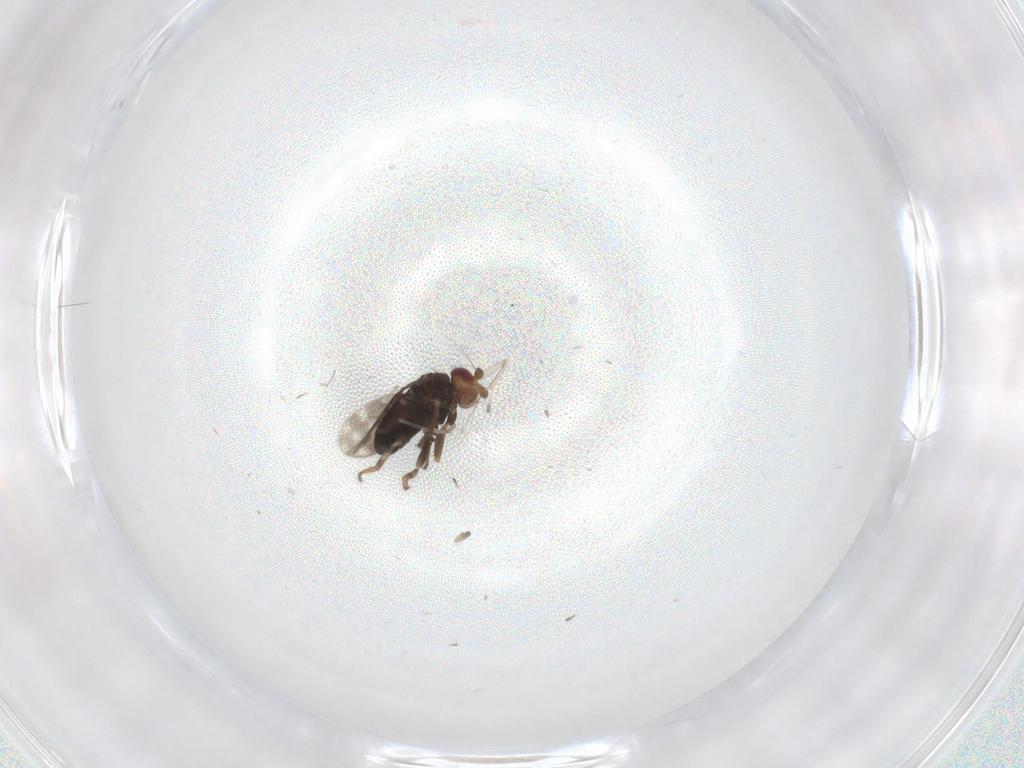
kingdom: Animalia
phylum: Arthropoda
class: Insecta
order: Diptera
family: Sphaeroceridae
